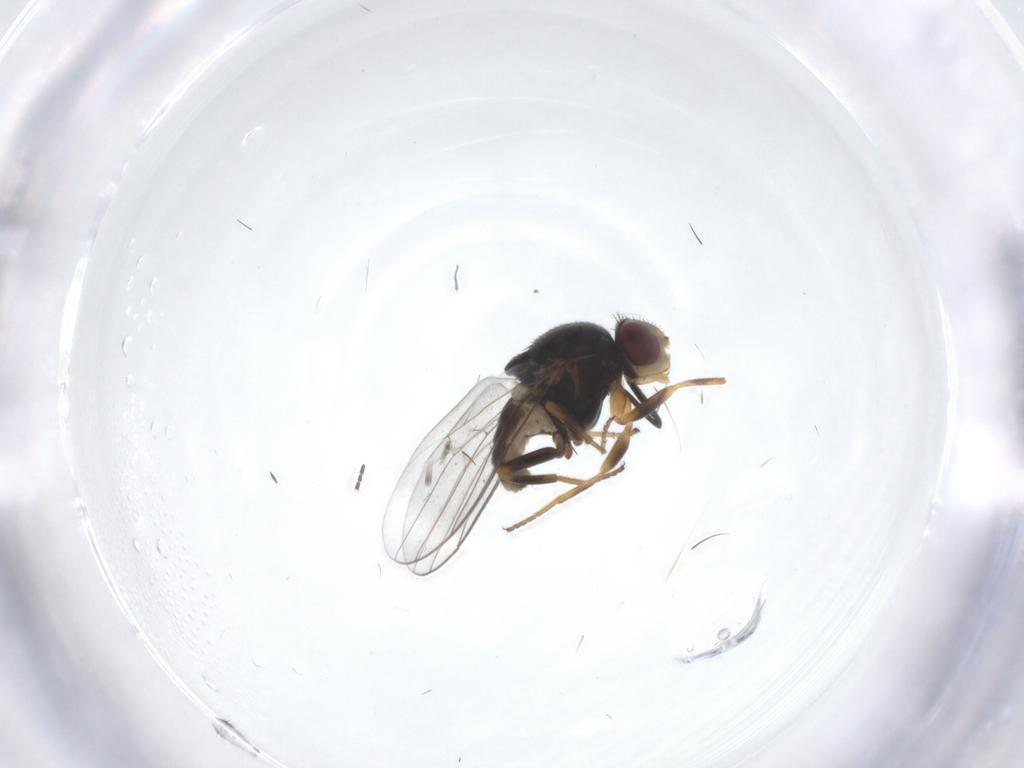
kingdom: Animalia
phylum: Arthropoda
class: Insecta
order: Diptera
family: Chloropidae
